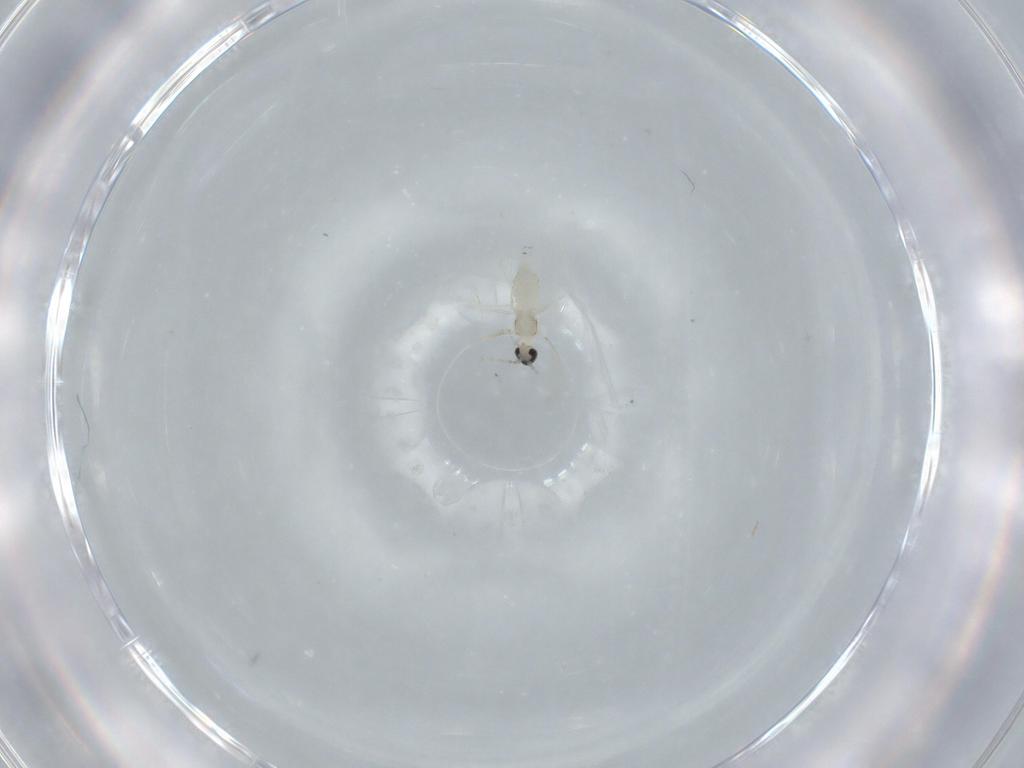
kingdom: Animalia
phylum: Arthropoda
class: Insecta
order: Diptera
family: Cecidomyiidae
